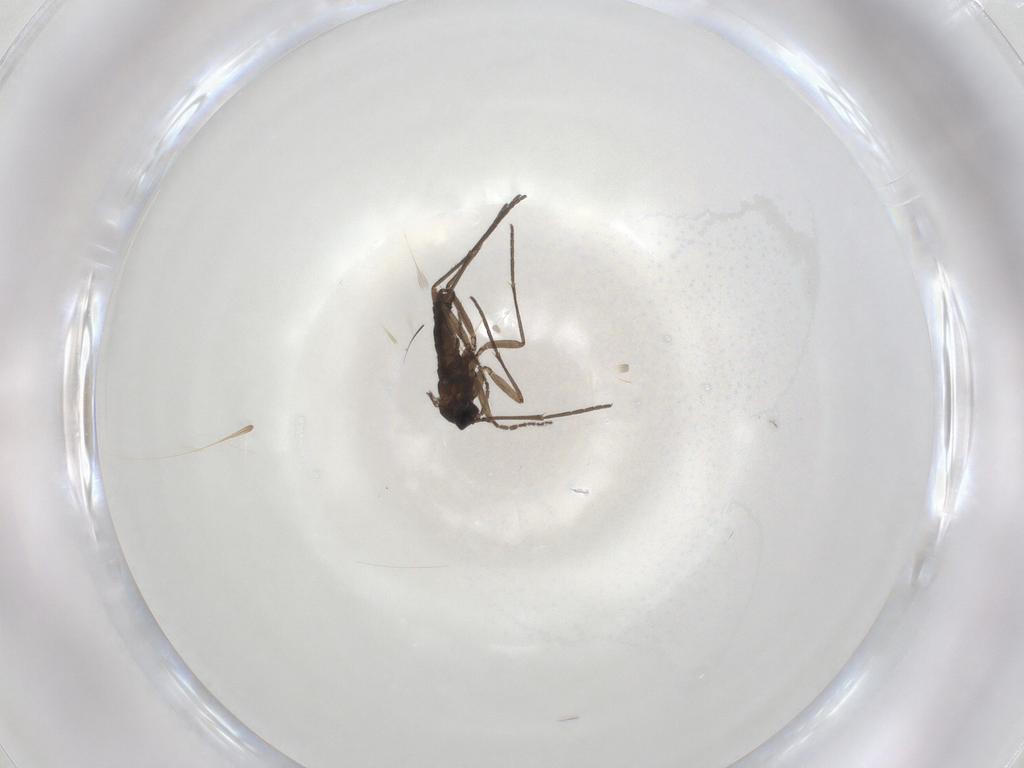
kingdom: Animalia
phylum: Arthropoda
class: Insecta
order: Diptera
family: Sciaridae
